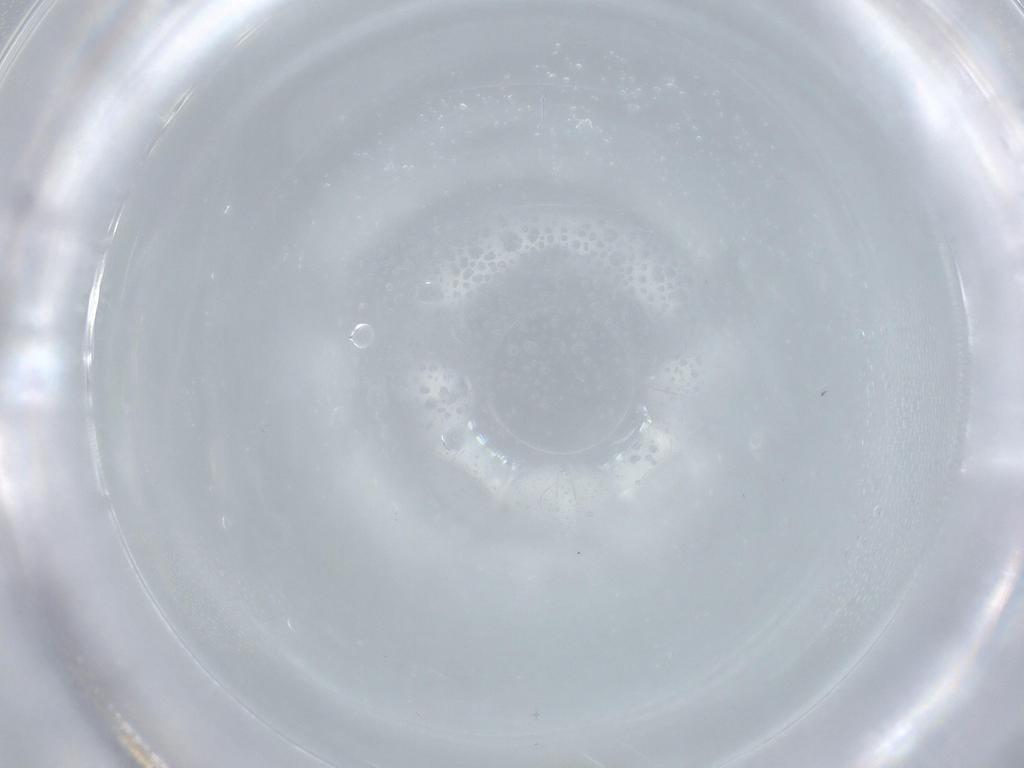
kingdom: Animalia
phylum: Arthropoda
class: Insecta
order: Diptera
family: Cecidomyiidae
